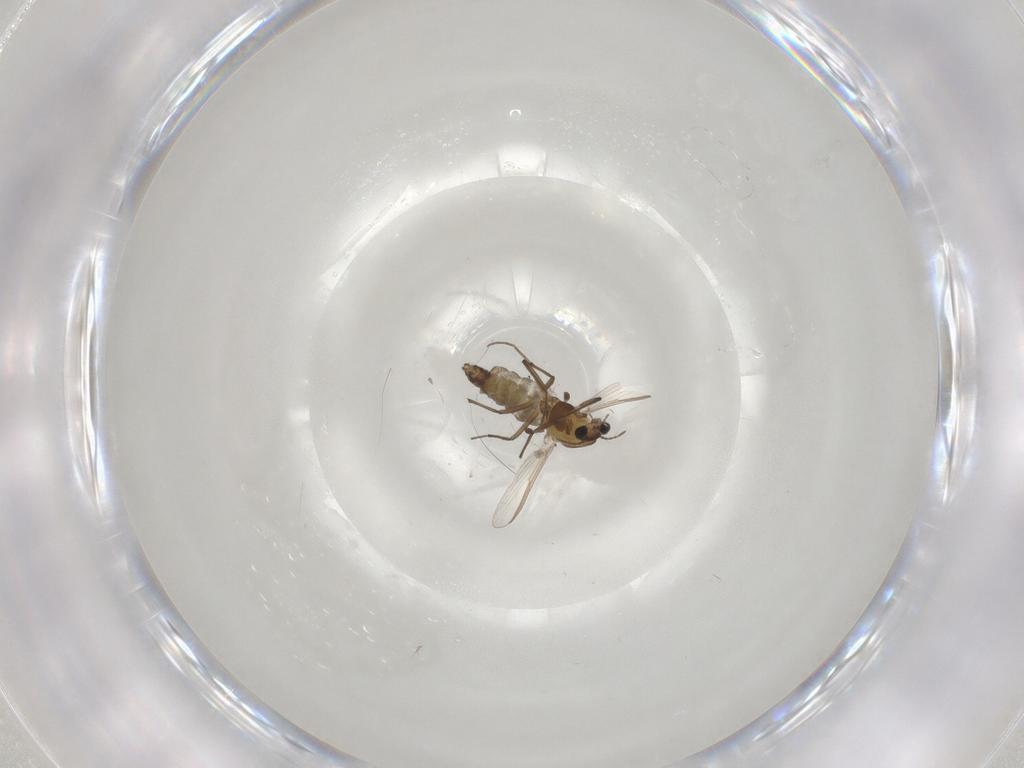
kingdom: Animalia
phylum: Arthropoda
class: Insecta
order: Diptera
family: Chironomidae
